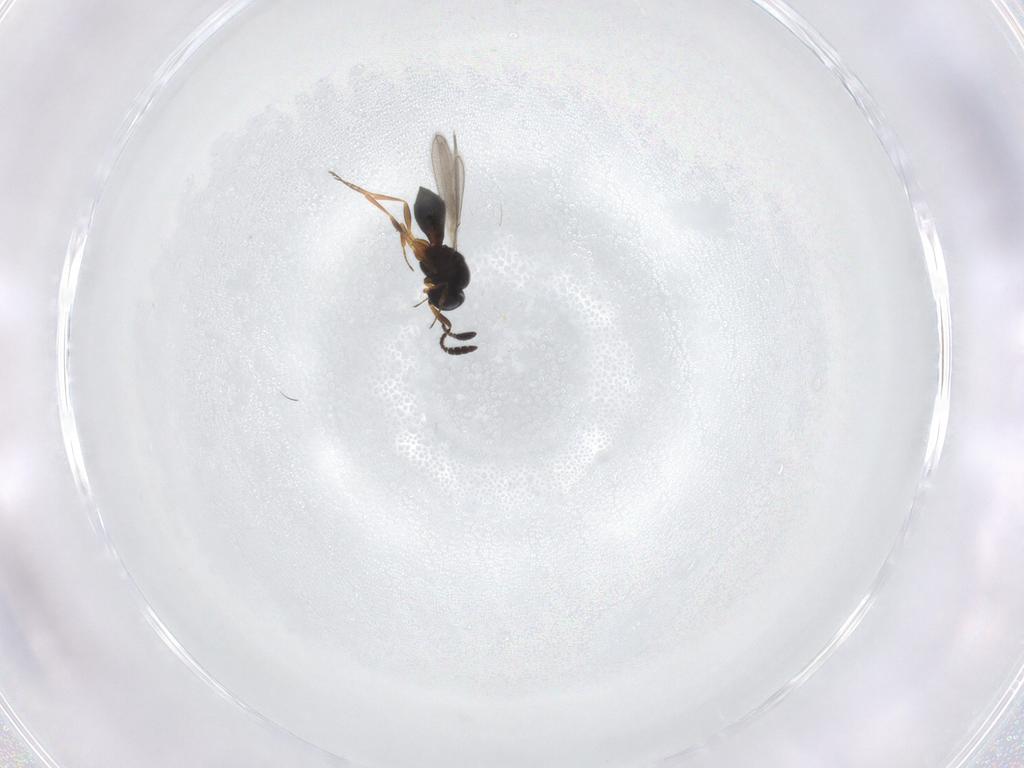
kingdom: Animalia
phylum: Arthropoda
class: Insecta
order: Hymenoptera
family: Scelionidae
